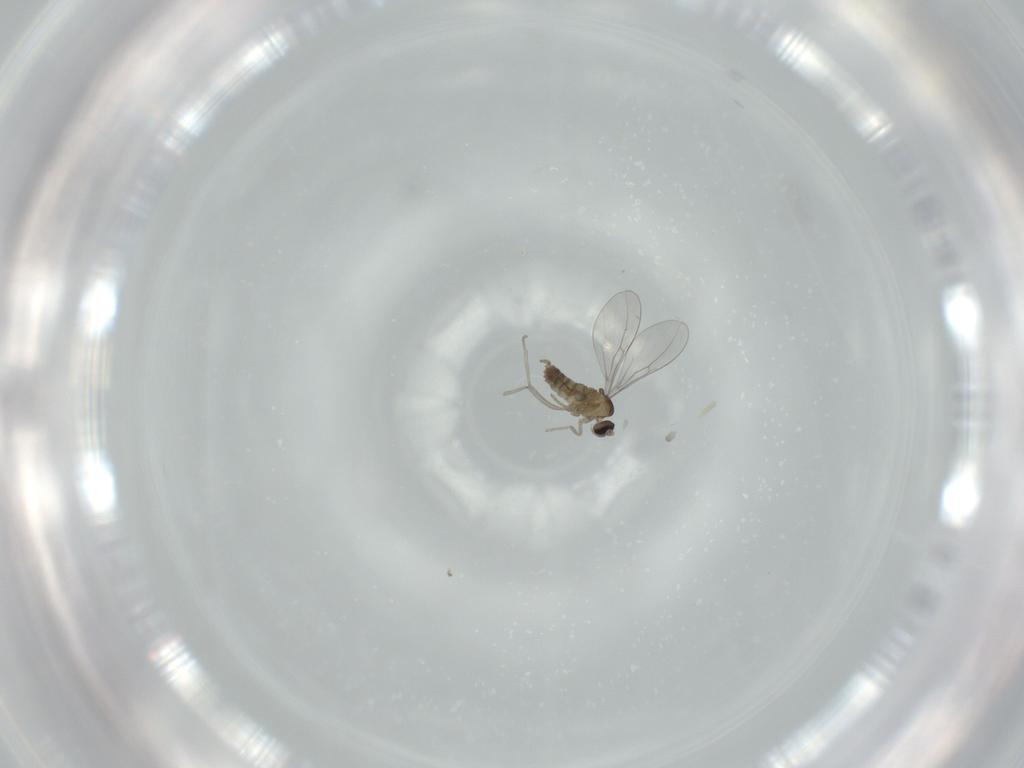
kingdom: Animalia
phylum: Arthropoda
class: Insecta
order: Diptera
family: Cecidomyiidae
